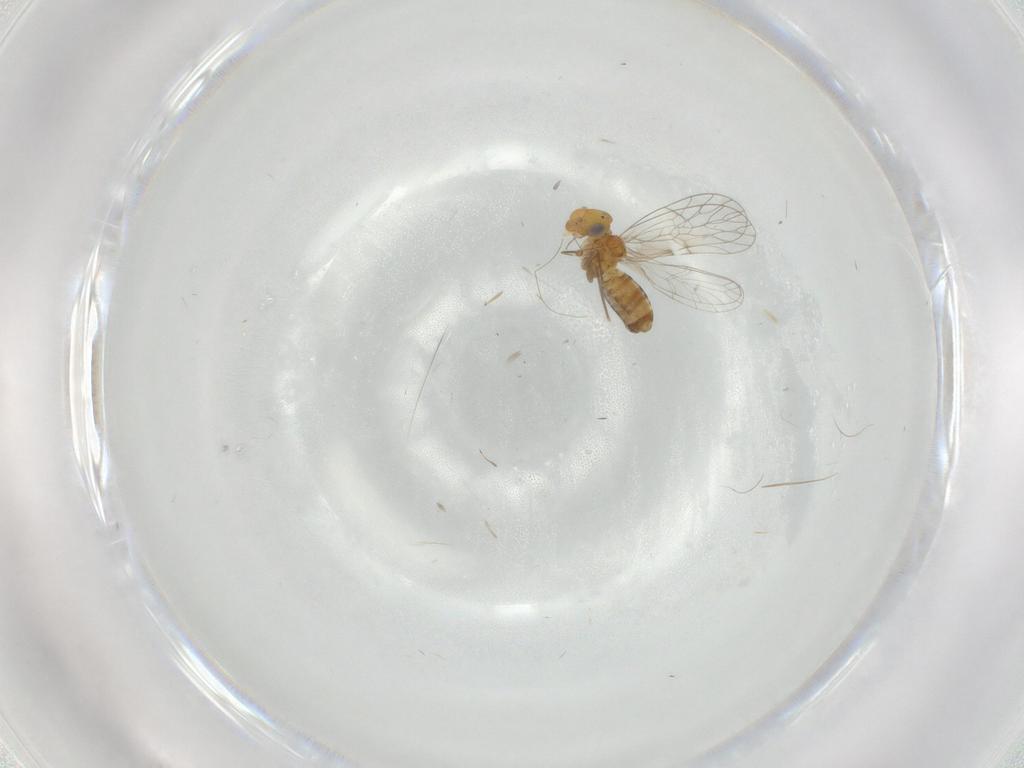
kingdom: Animalia
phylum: Arthropoda
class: Insecta
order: Psocodea
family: Prionoglarididae
